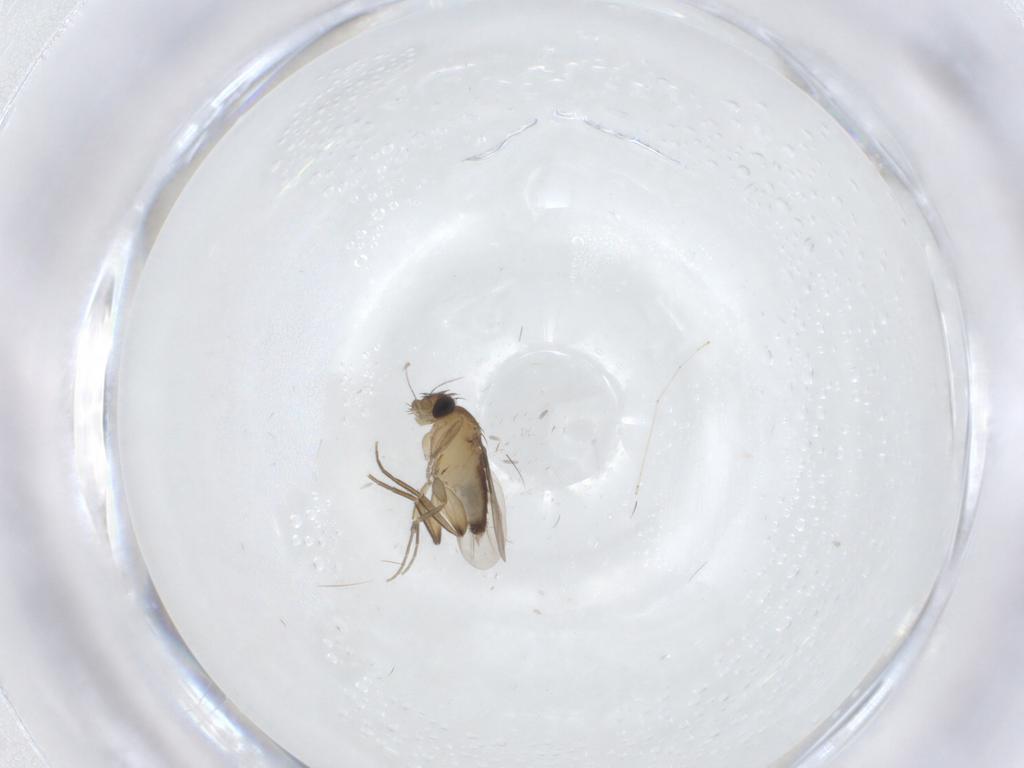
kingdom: Animalia
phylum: Arthropoda
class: Insecta
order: Diptera
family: Phoridae
